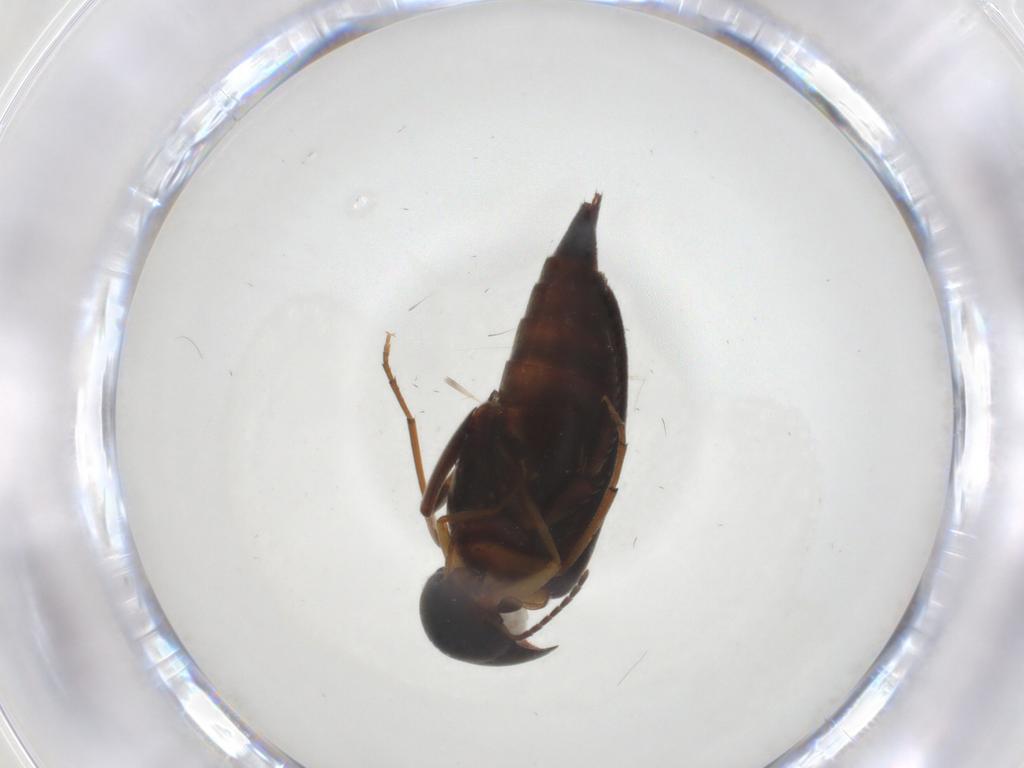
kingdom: Animalia
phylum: Arthropoda
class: Insecta
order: Coleoptera
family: Mordellidae
